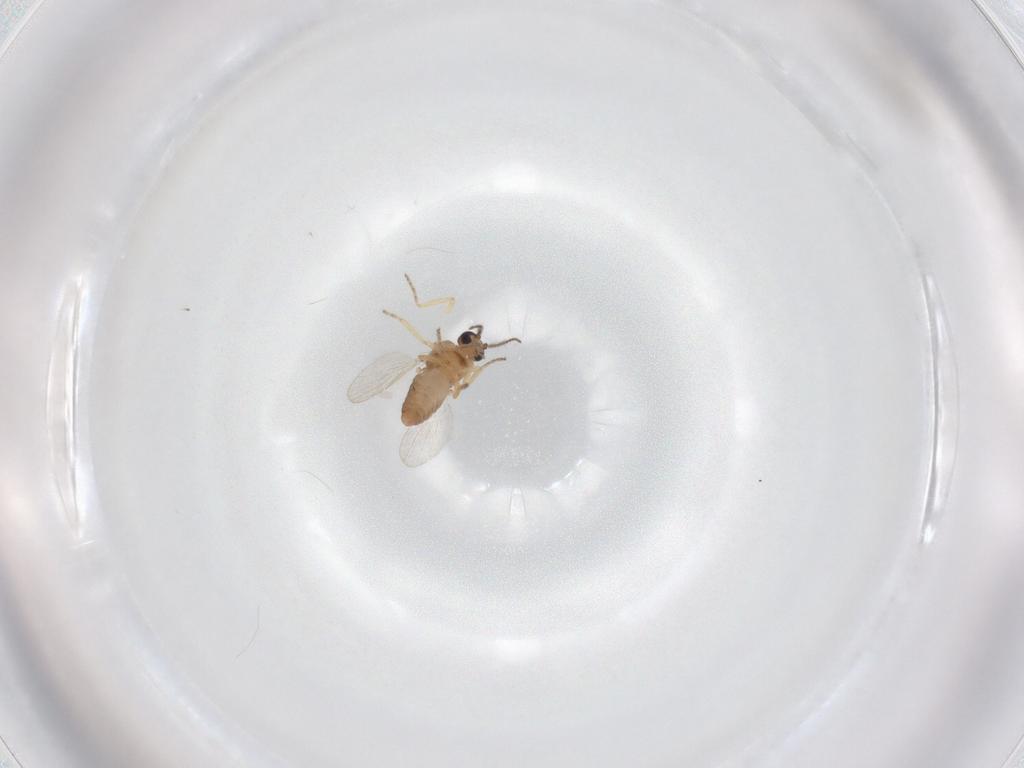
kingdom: Animalia
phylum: Arthropoda
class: Insecta
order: Diptera
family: Ceratopogonidae
